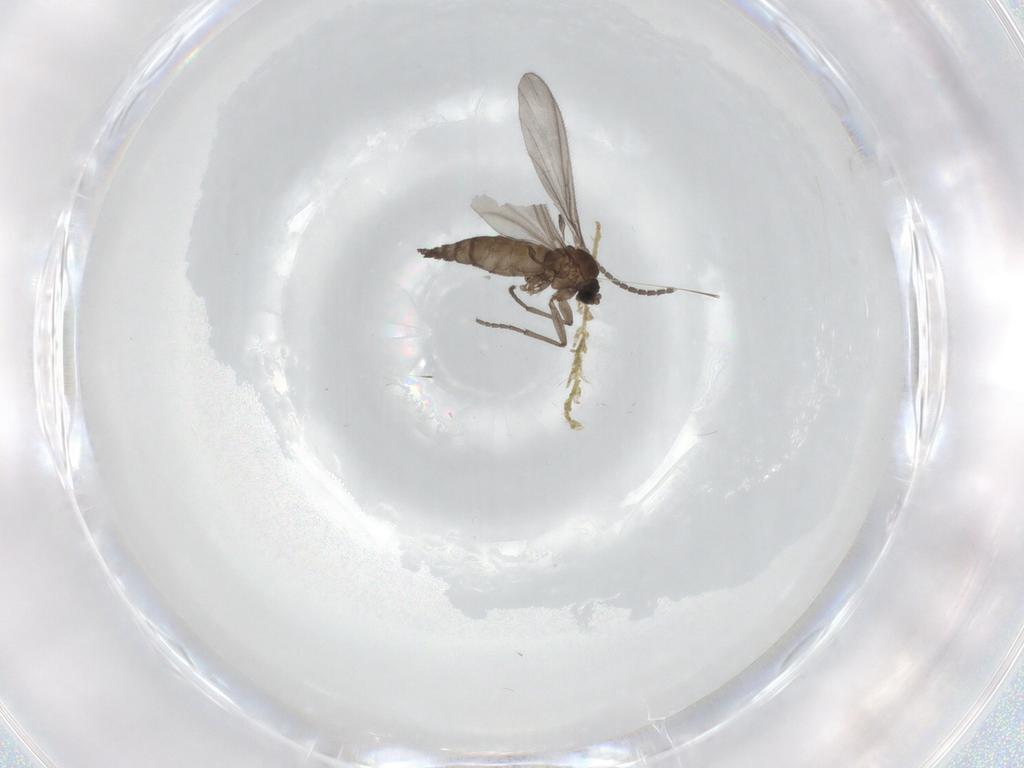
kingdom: Animalia
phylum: Arthropoda
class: Insecta
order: Diptera
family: Sciaridae
